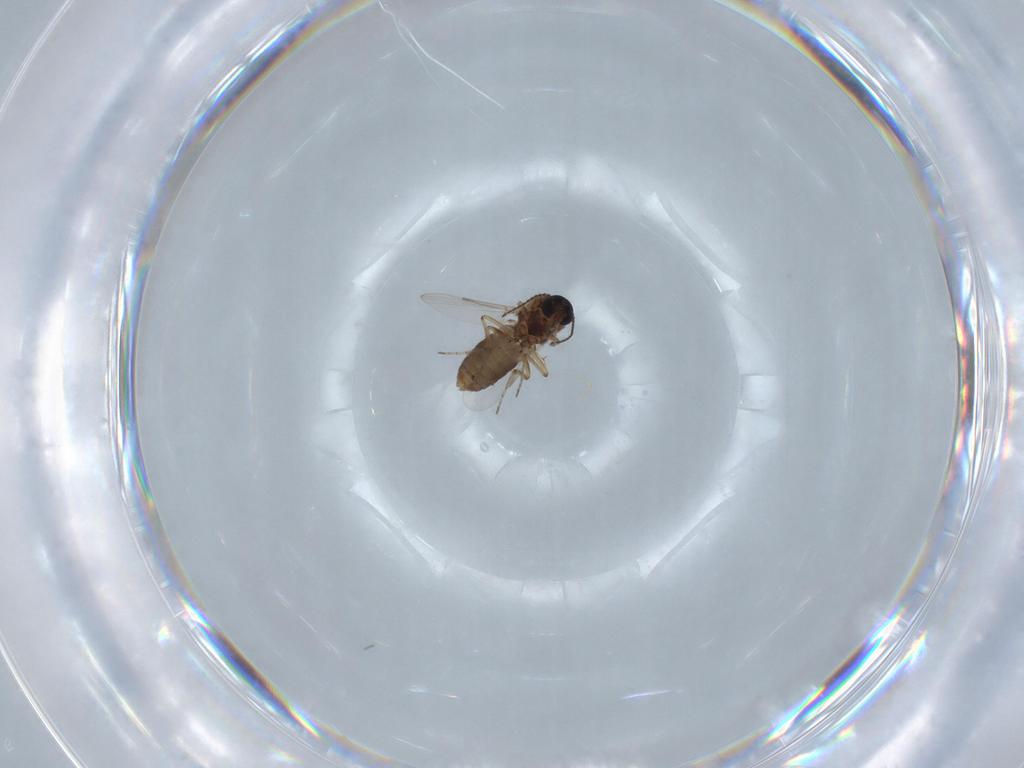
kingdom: Animalia
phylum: Arthropoda
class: Insecta
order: Diptera
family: Ceratopogonidae
